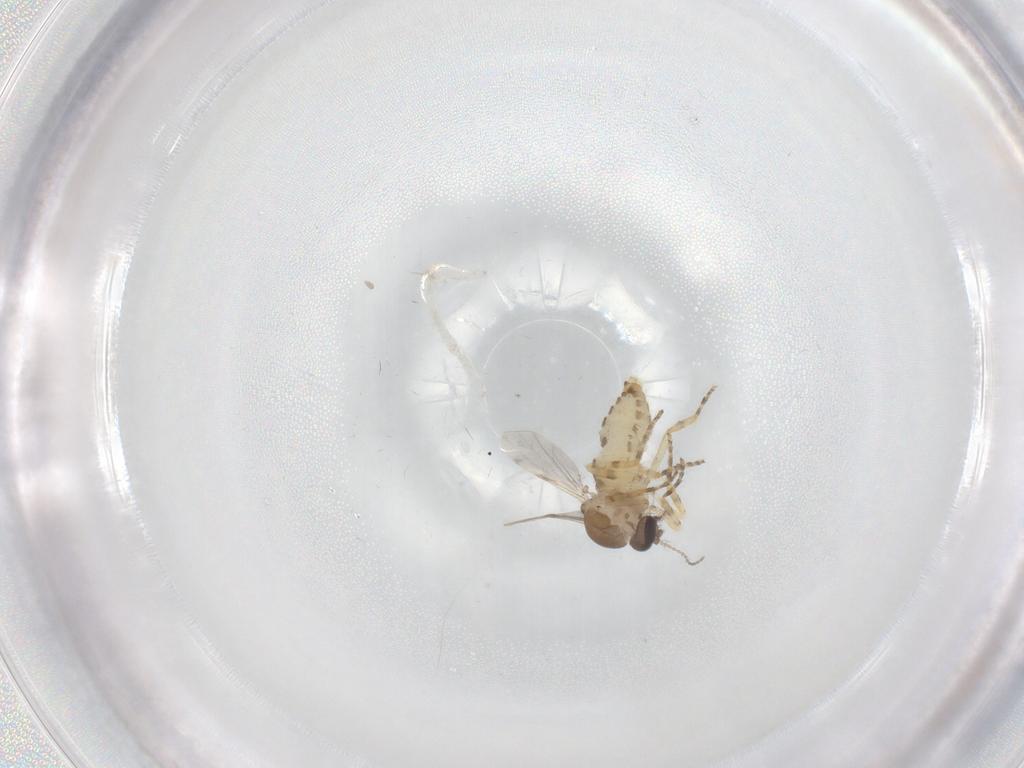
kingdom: Animalia
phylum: Arthropoda
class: Insecta
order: Diptera
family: Ceratopogonidae
